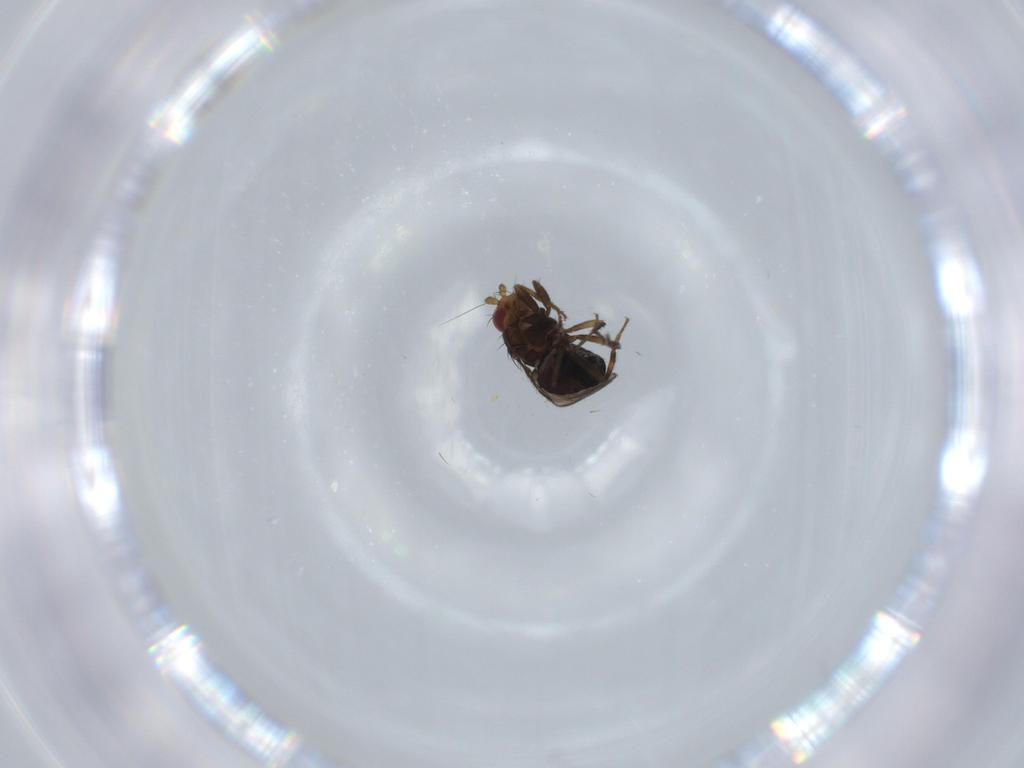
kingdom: Animalia
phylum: Arthropoda
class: Insecta
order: Diptera
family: Sphaeroceridae
